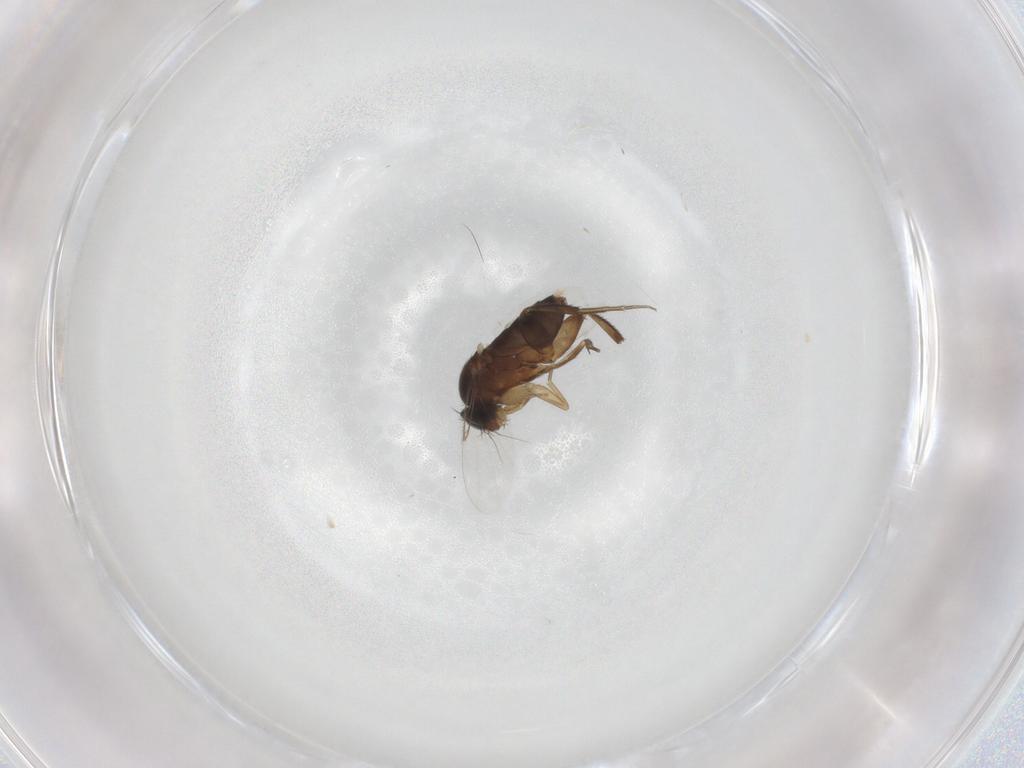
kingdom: Animalia
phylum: Arthropoda
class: Insecta
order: Diptera
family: Phoridae
